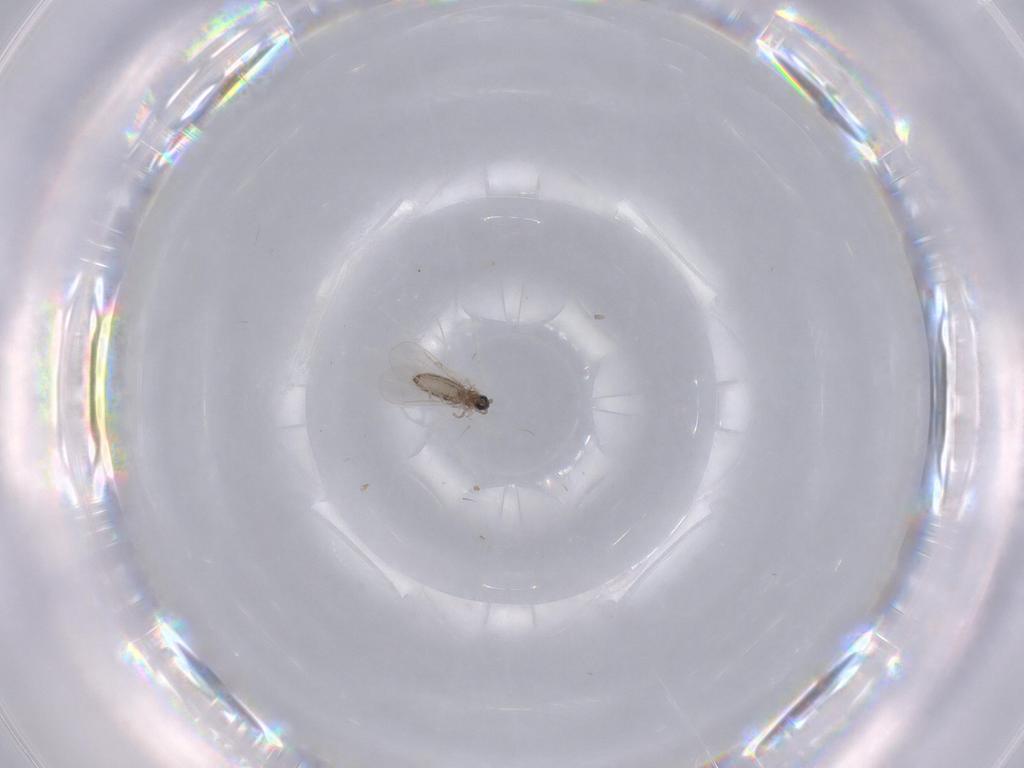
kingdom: Animalia
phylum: Arthropoda
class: Insecta
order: Diptera
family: Cecidomyiidae
